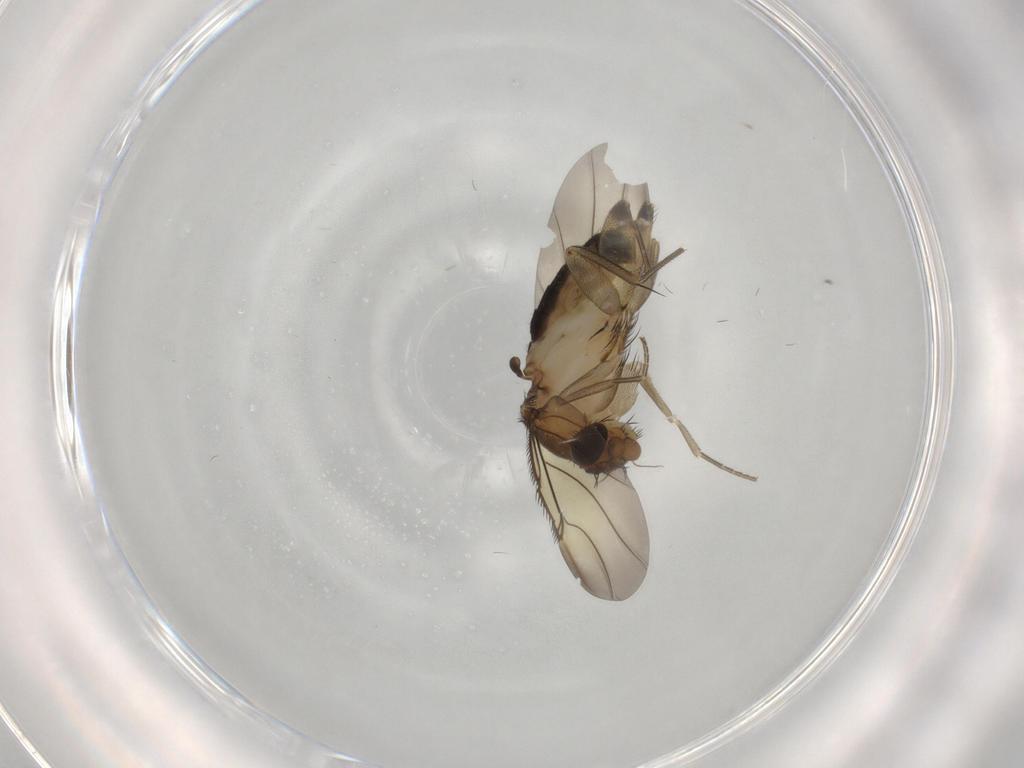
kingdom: Animalia
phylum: Arthropoda
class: Insecta
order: Diptera
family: Phoridae
